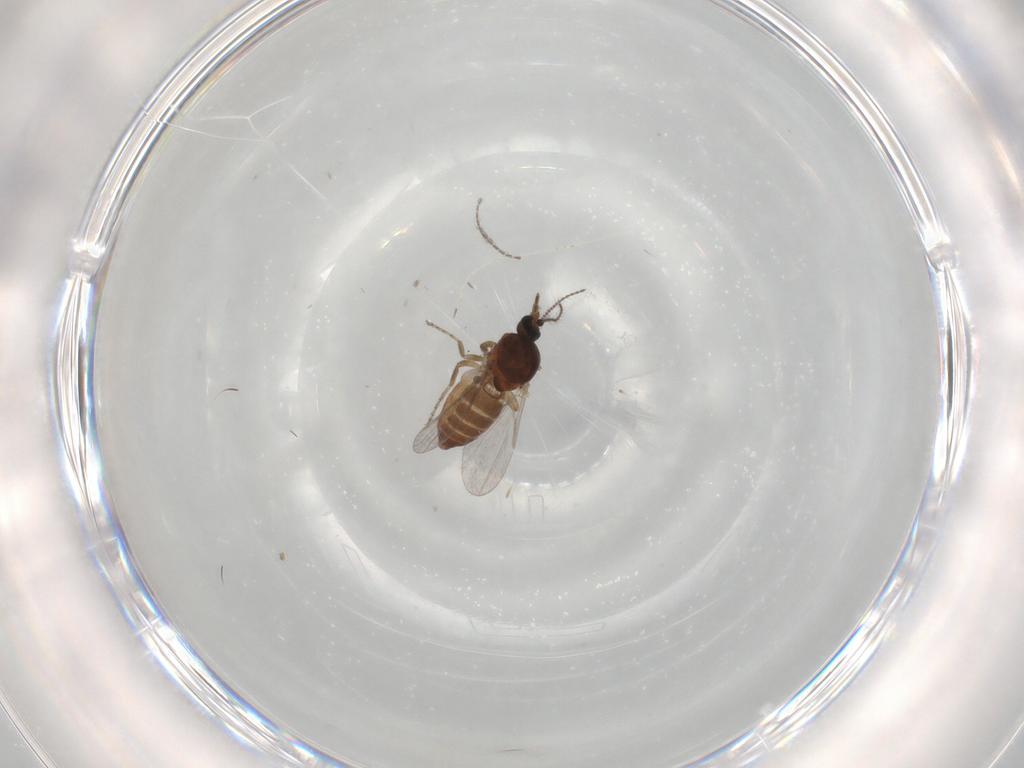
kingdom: Animalia
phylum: Arthropoda
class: Insecta
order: Diptera
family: Ceratopogonidae
